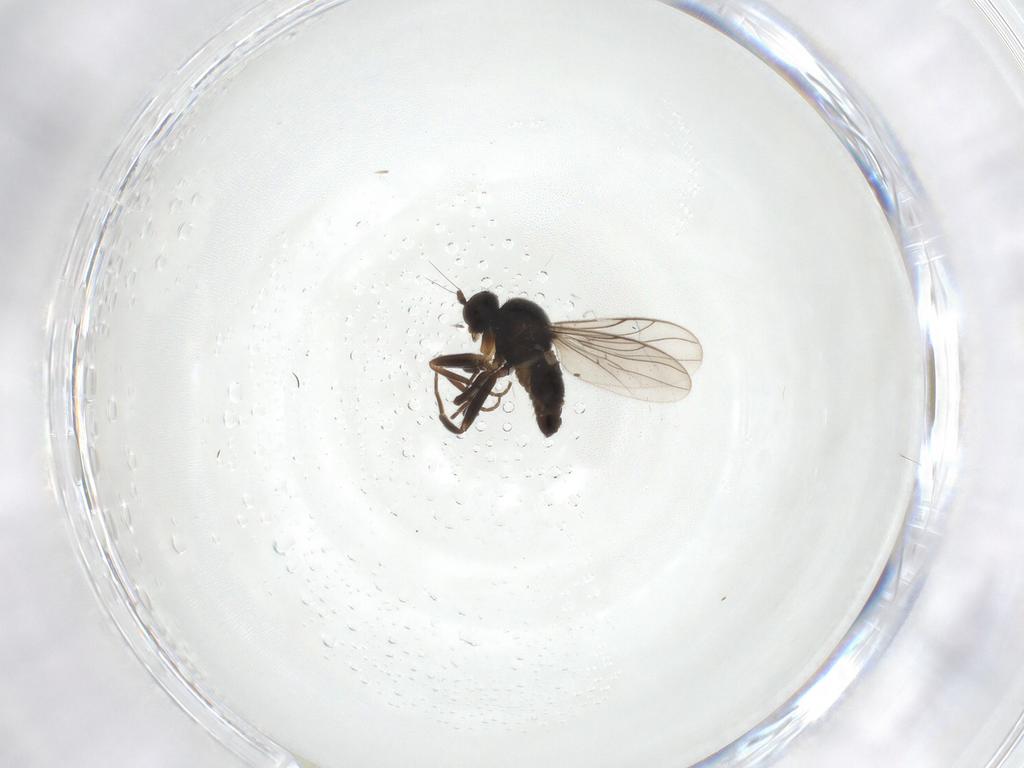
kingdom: Animalia
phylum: Arthropoda
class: Insecta
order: Diptera
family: Hybotidae
